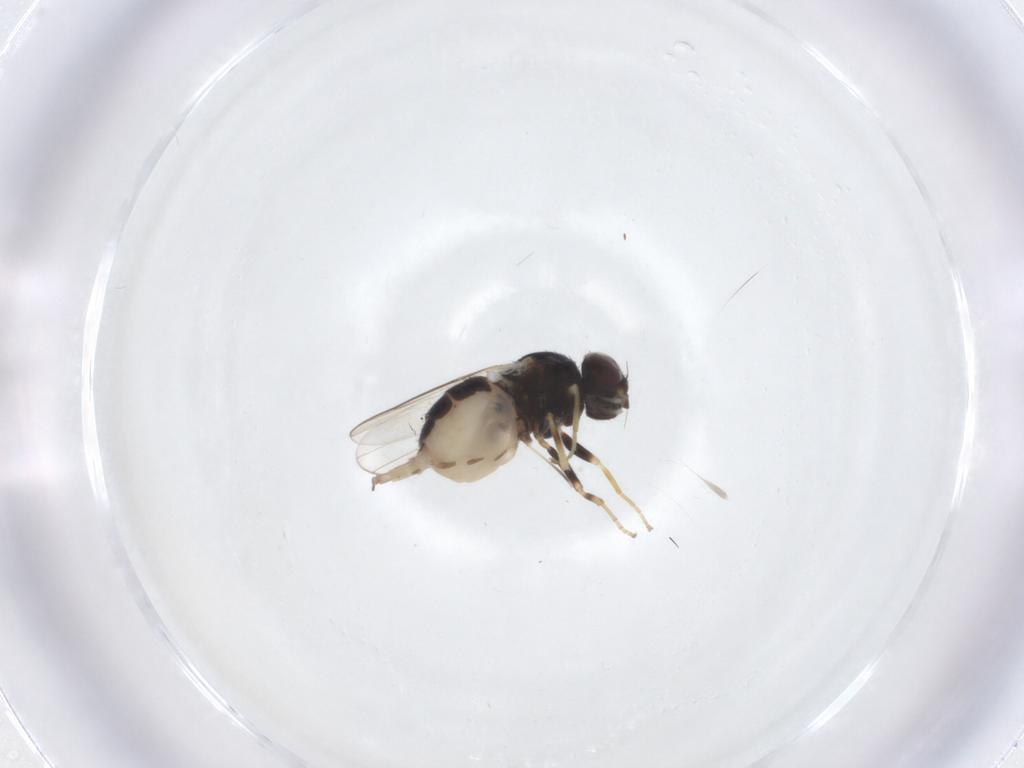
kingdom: Animalia
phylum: Arthropoda
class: Insecta
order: Diptera
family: Chloropidae
